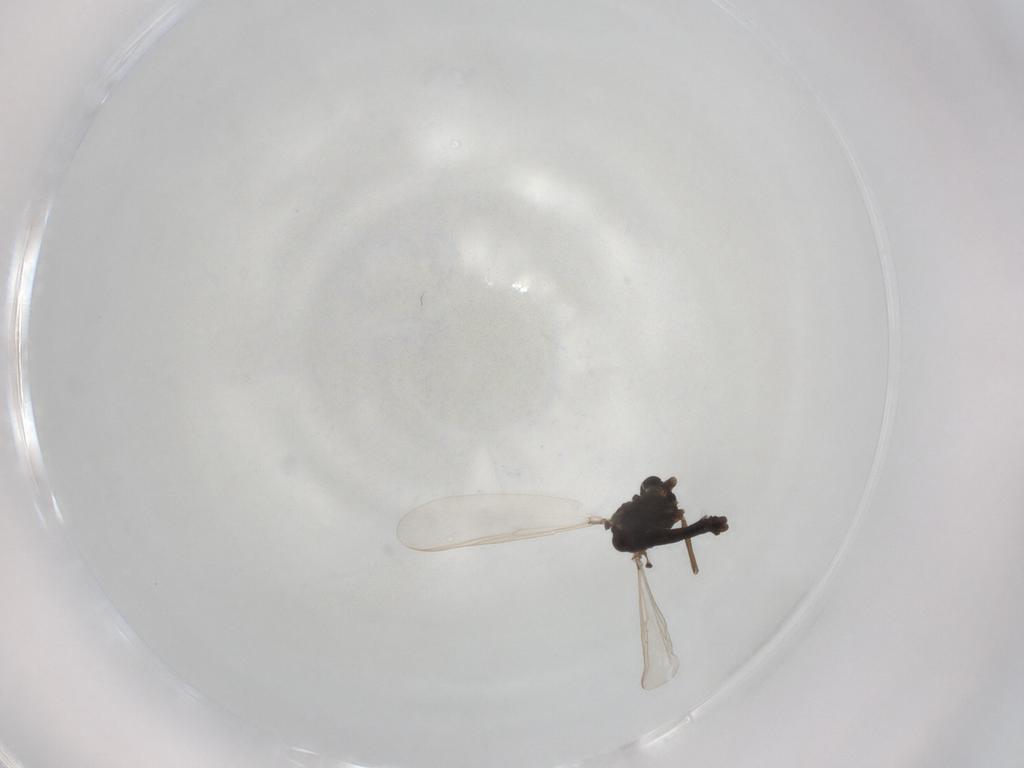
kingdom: Animalia
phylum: Arthropoda
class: Insecta
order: Diptera
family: Chironomidae
